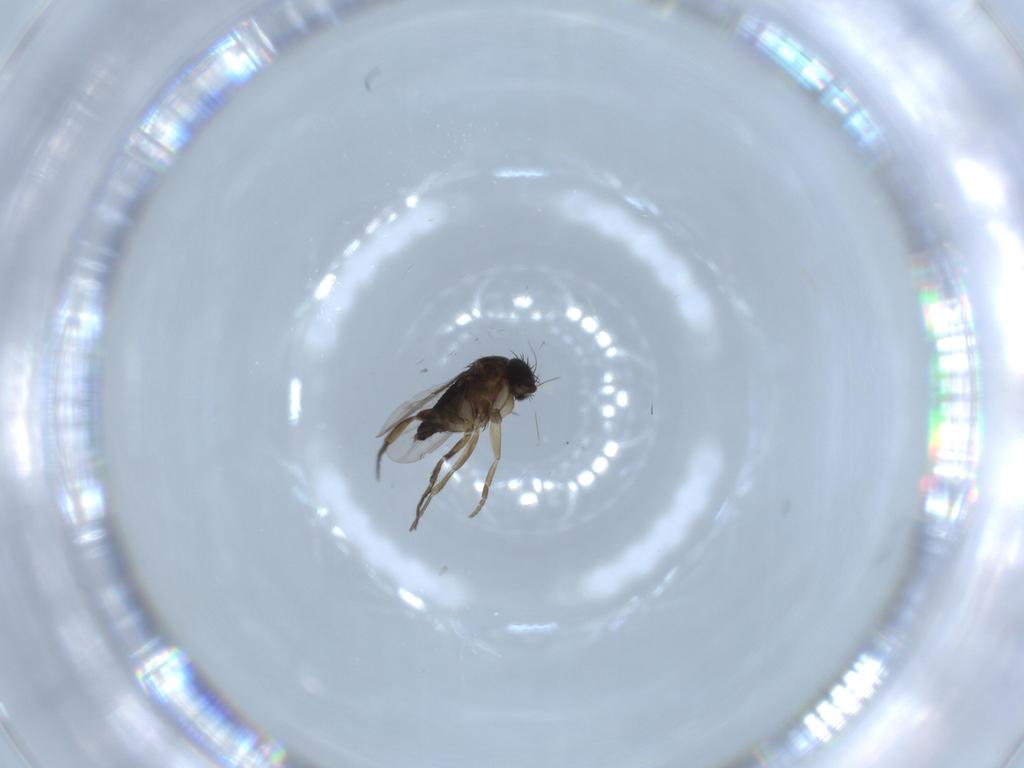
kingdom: Animalia
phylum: Arthropoda
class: Insecta
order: Diptera
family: Phoridae
